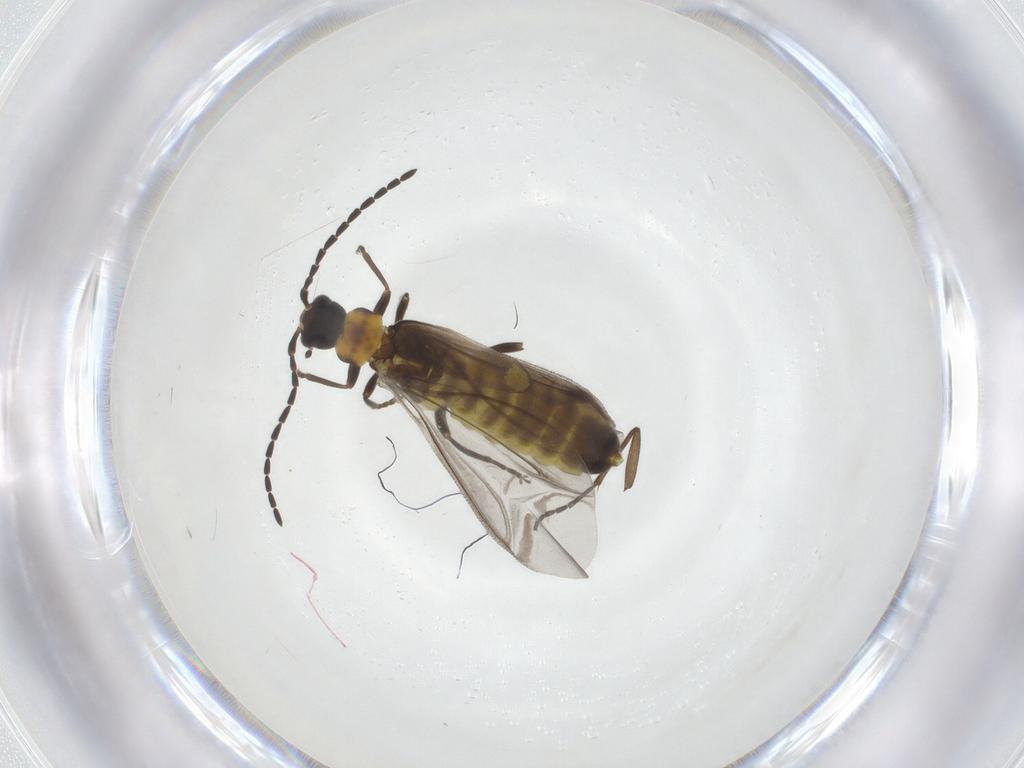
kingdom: Animalia
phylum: Arthropoda
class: Insecta
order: Coleoptera
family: Cantharidae
